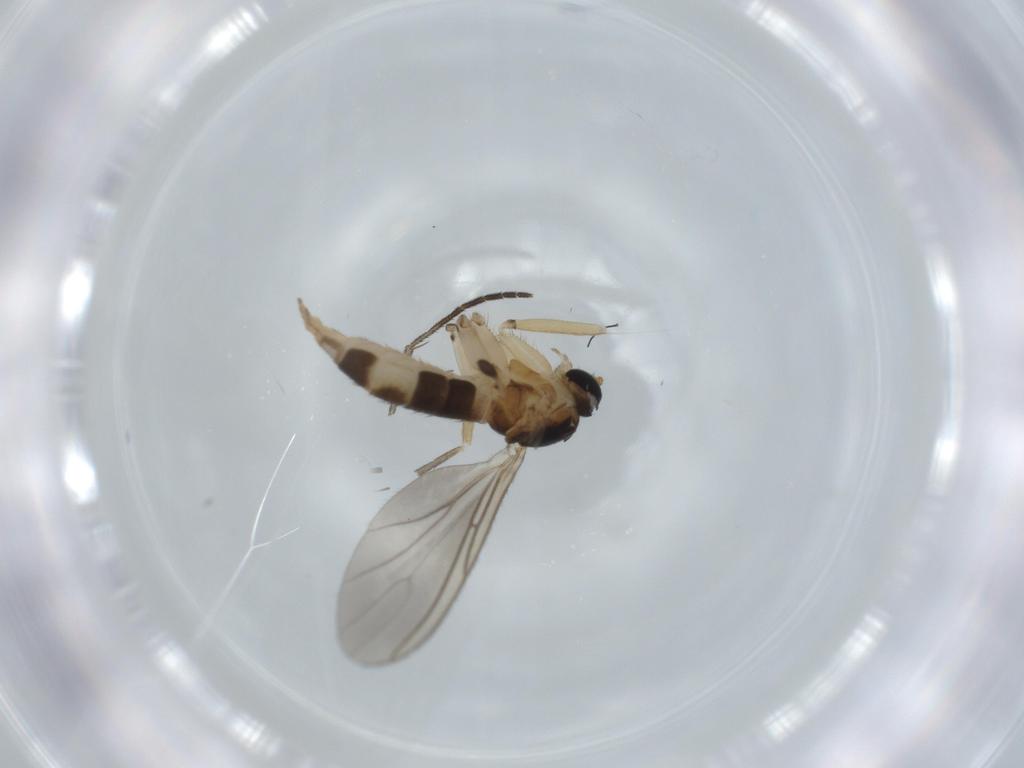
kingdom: Animalia
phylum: Arthropoda
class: Insecta
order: Diptera
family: Sciaridae
